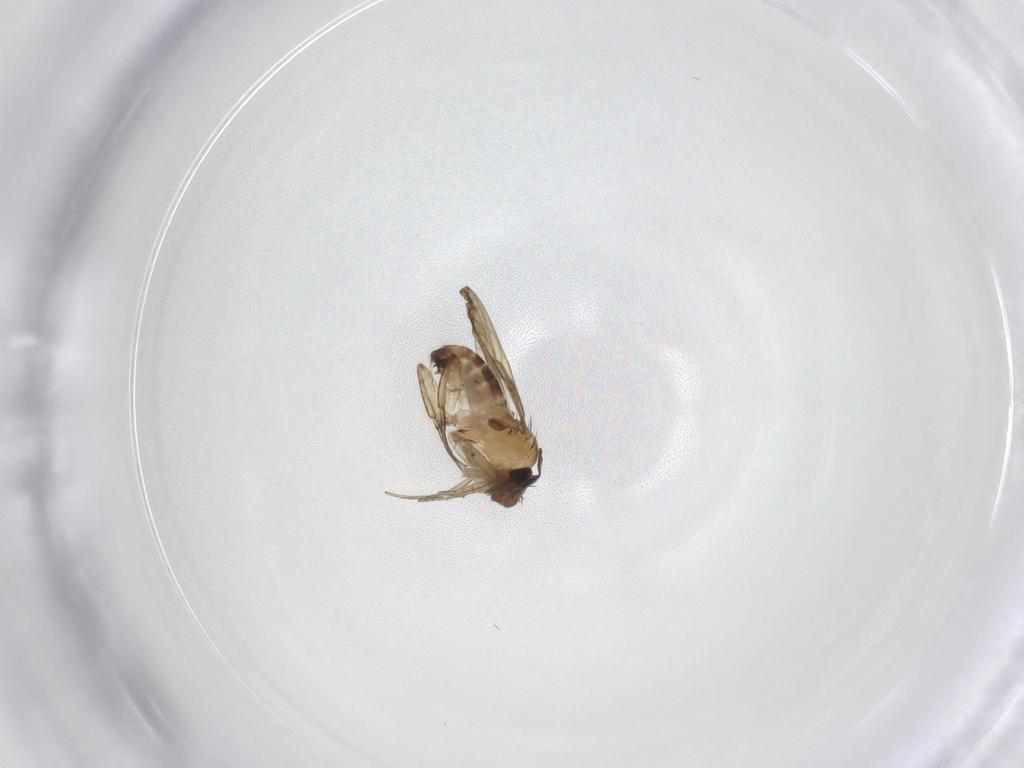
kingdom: Animalia
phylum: Arthropoda
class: Insecta
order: Diptera
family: Phoridae
